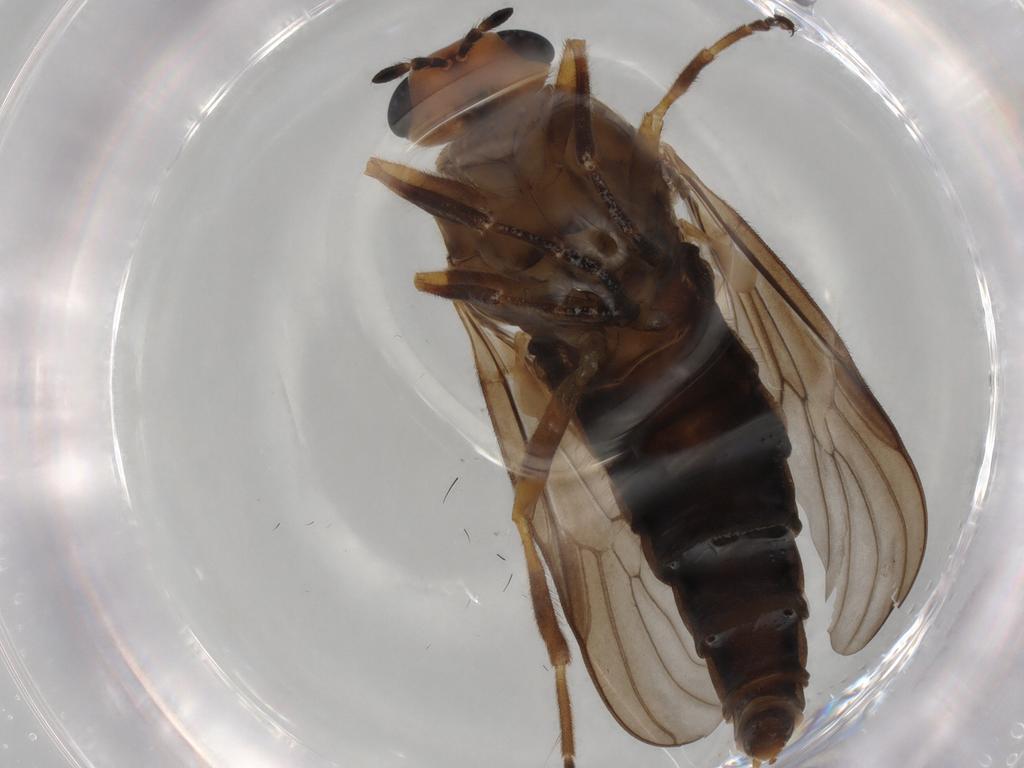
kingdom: Animalia
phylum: Arthropoda
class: Insecta
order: Diptera
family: Stratiomyidae
